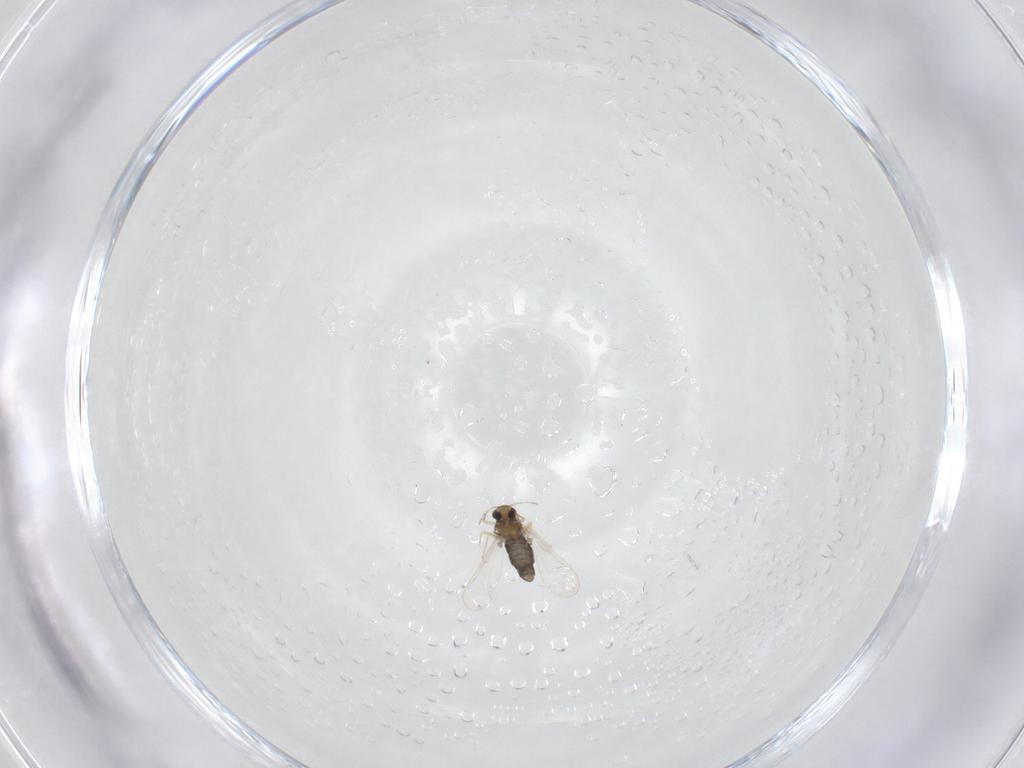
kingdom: Animalia
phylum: Arthropoda
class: Insecta
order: Diptera
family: Chironomidae
